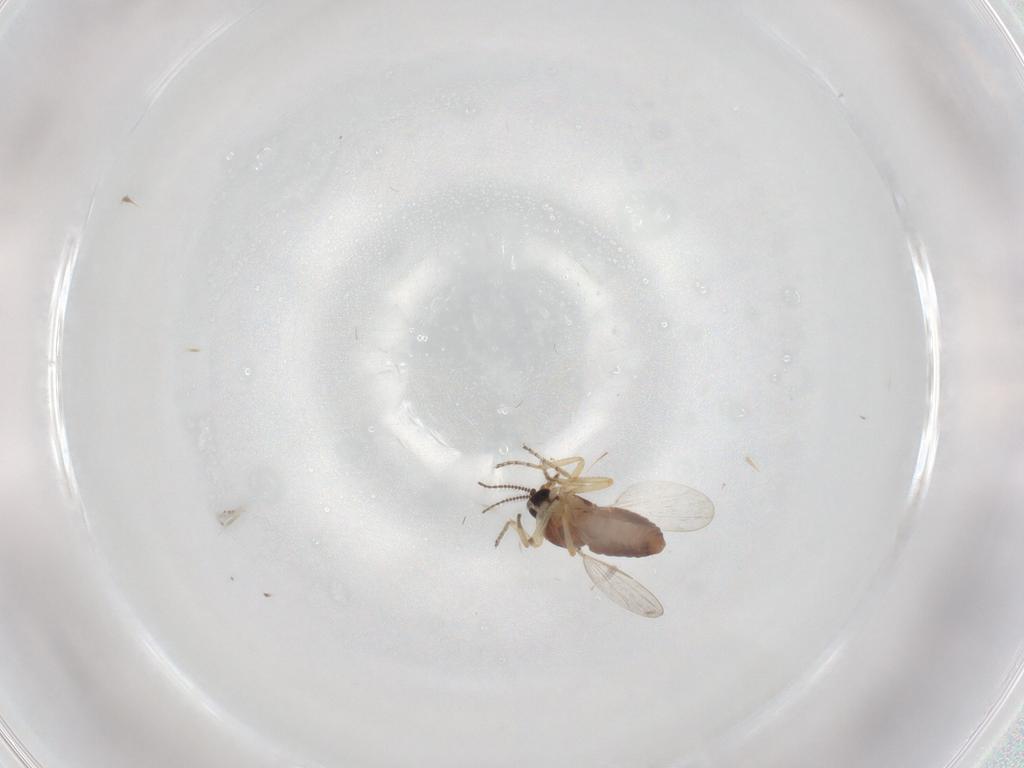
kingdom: Animalia
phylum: Arthropoda
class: Insecta
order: Diptera
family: Ceratopogonidae
